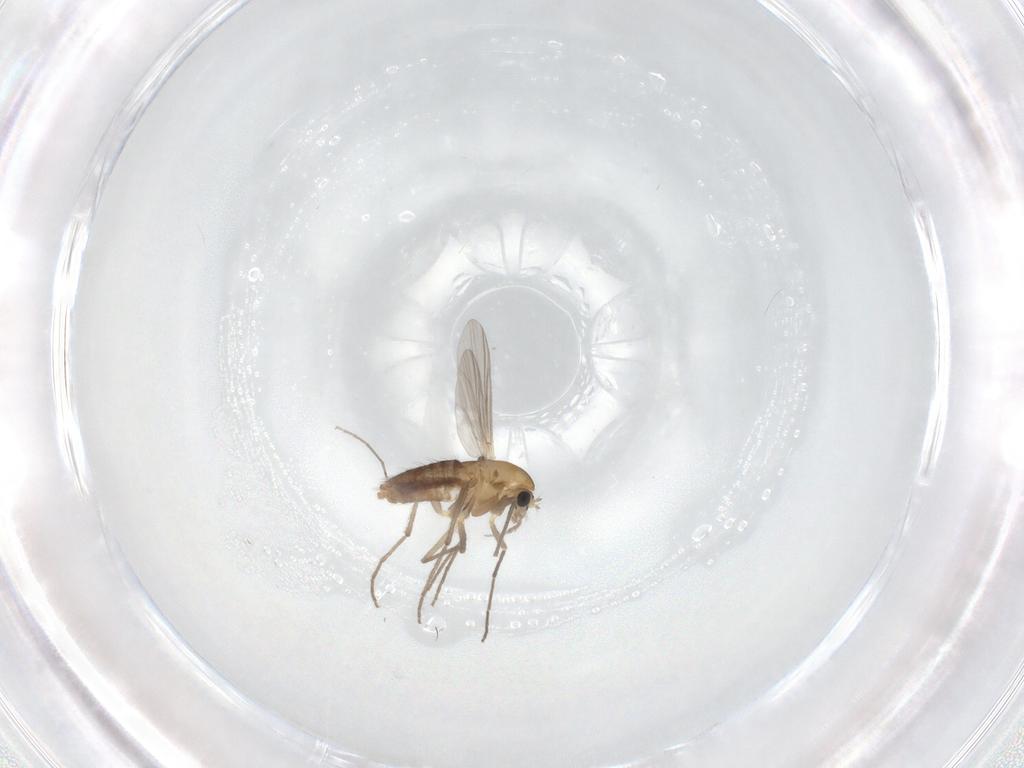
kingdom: Animalia
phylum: Arthropoda
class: Insecta
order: Diptera
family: Chironomidae
